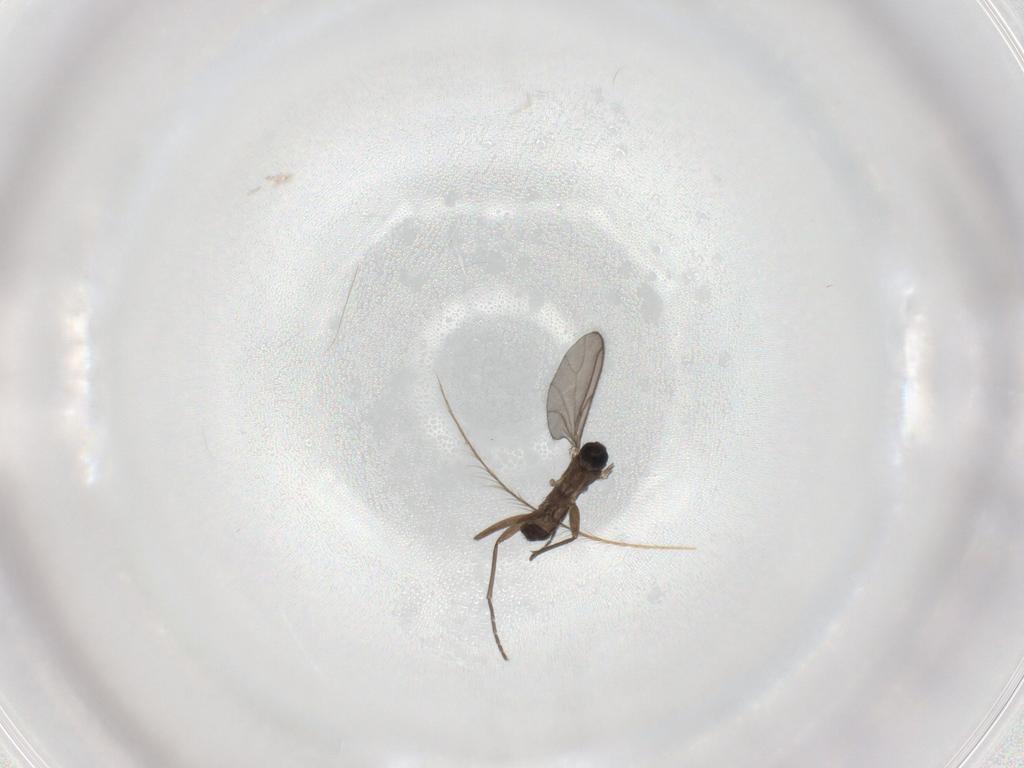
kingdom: Animalia
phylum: Arthropoda
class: Insecta
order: Diptera
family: Sciaridae
